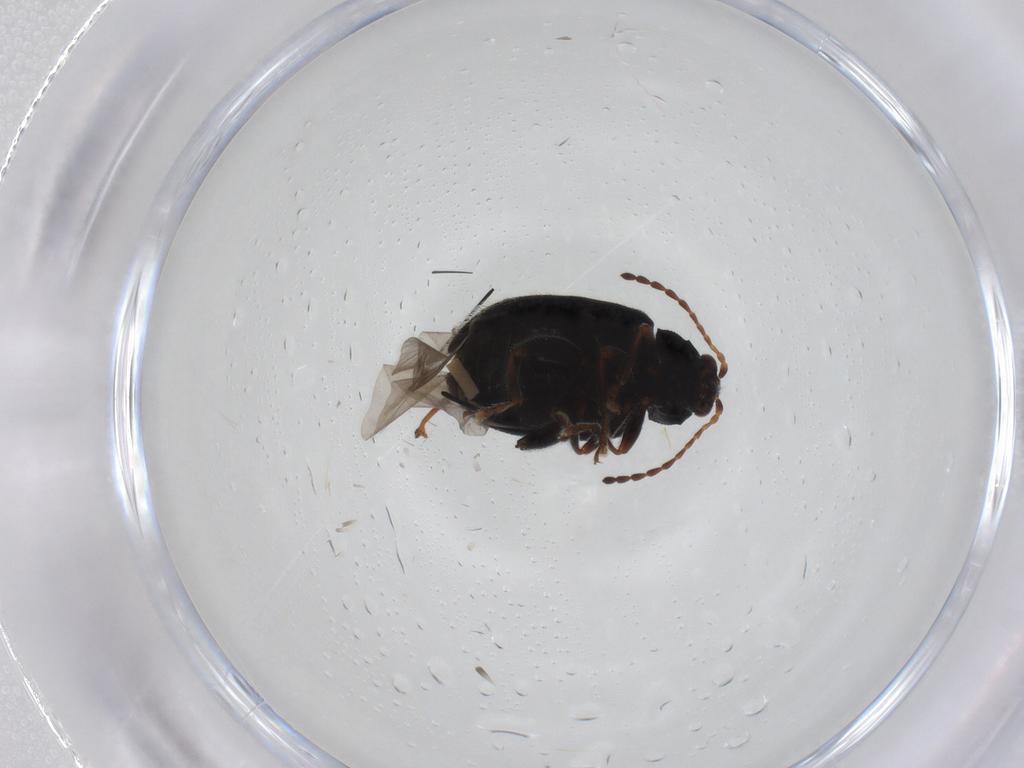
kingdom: Animalia
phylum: Arthropoda
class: Insecta
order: Coleoptera
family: Chrysomelidae
